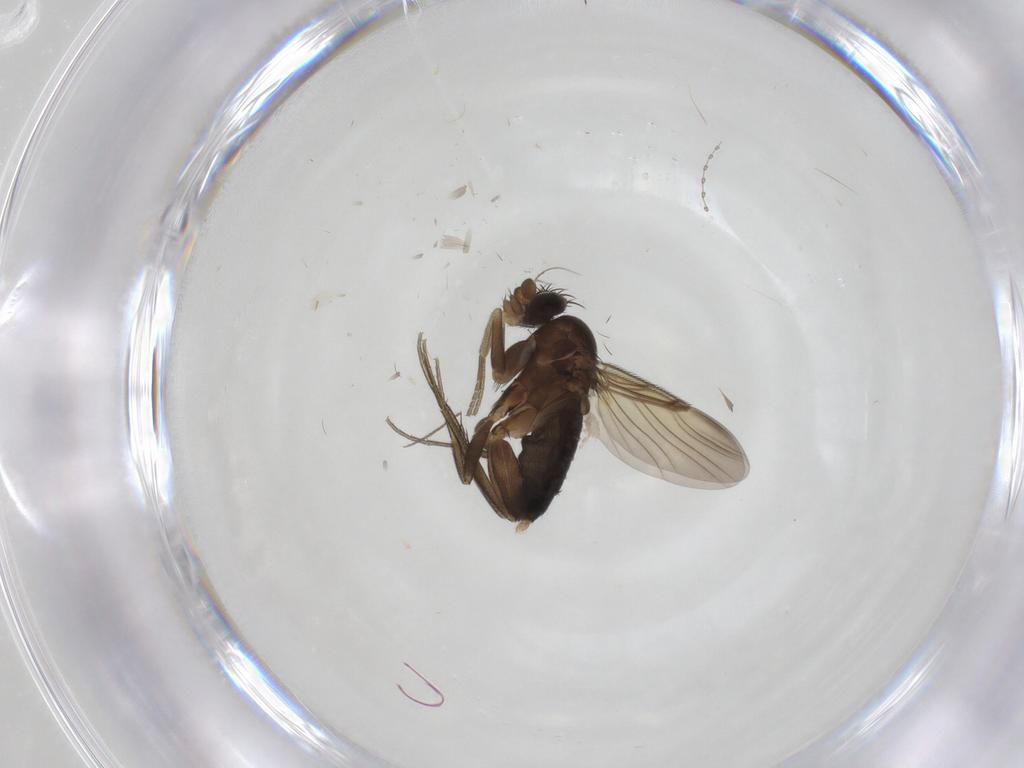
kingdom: Animalia
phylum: Arthropoda
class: Insecta
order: Diptera
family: Phoridae
